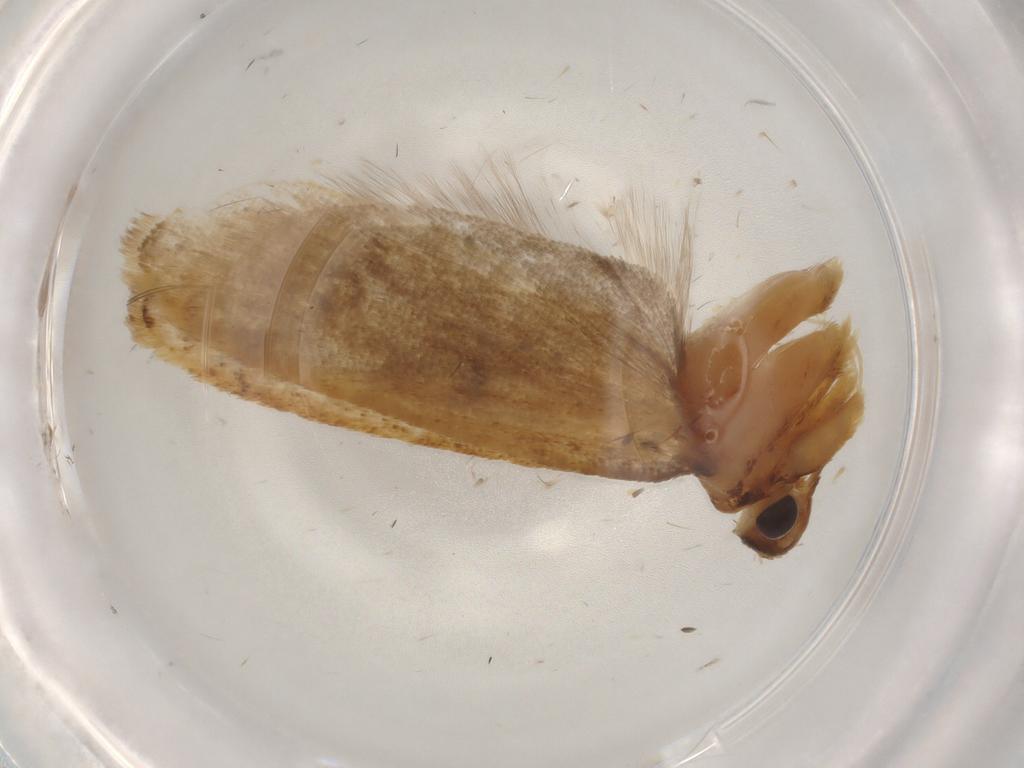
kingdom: Animalia
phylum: Arthropoda
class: Insecta
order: Lepidoptera
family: Lecithoceridae
